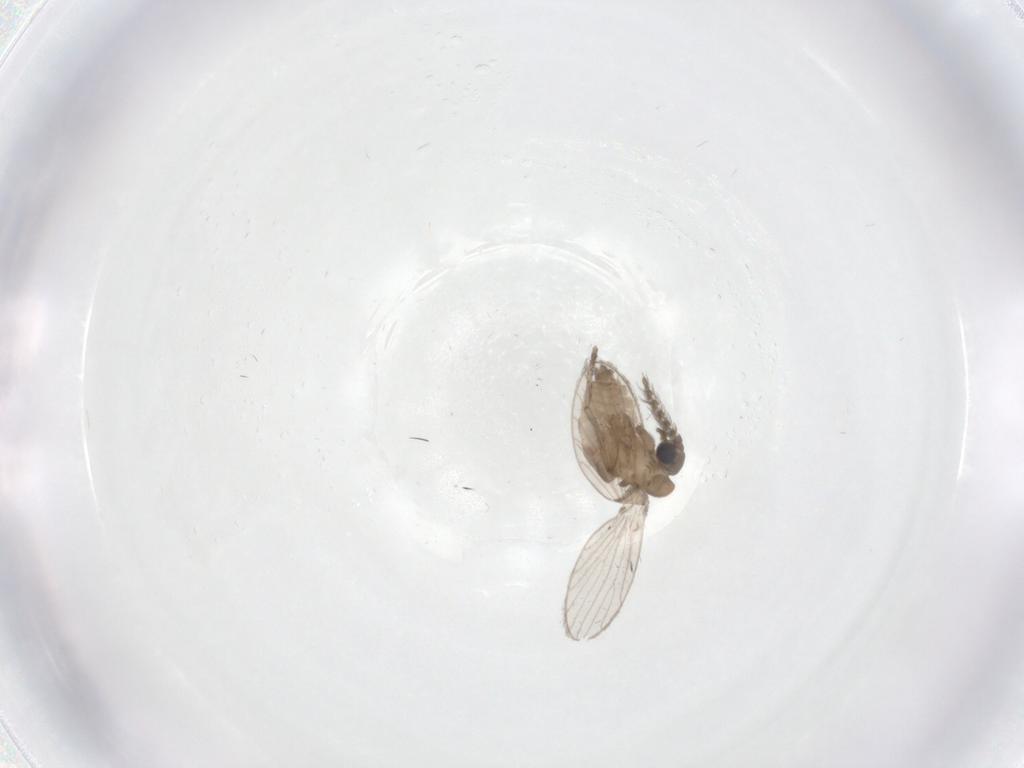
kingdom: Animalia
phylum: Arthropoda
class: Insecta
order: Diptera
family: Psychodidae
